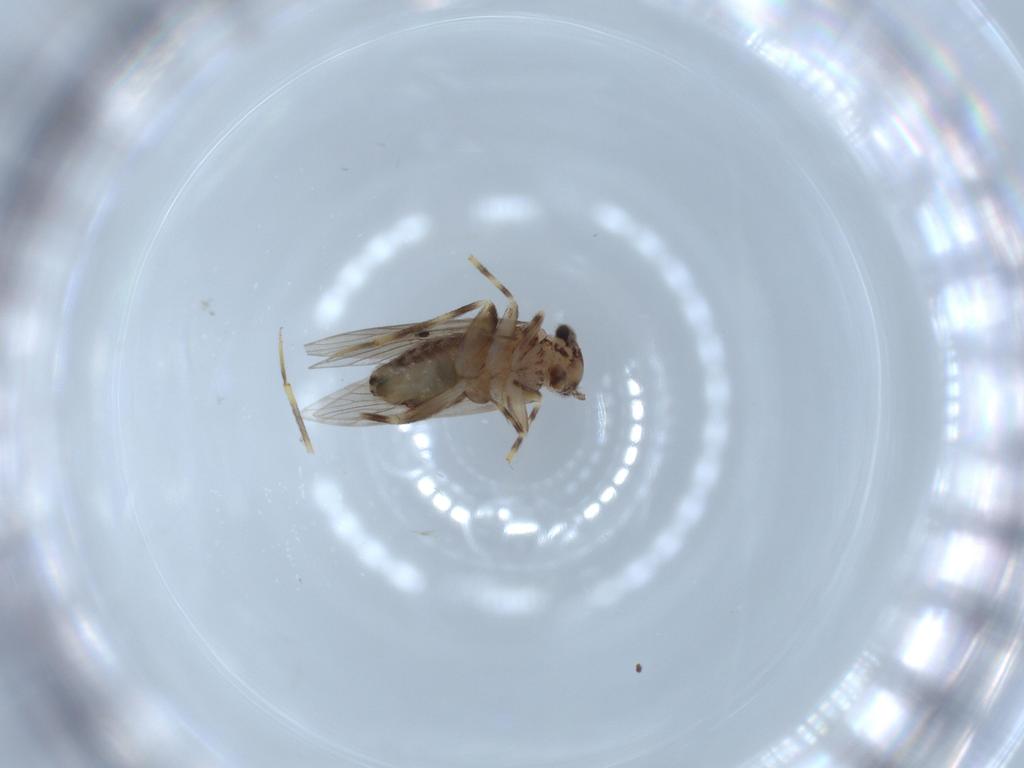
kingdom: Animalia
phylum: Arthropoda
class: Insecta
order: Psocodea
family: Lepidopsocidae
